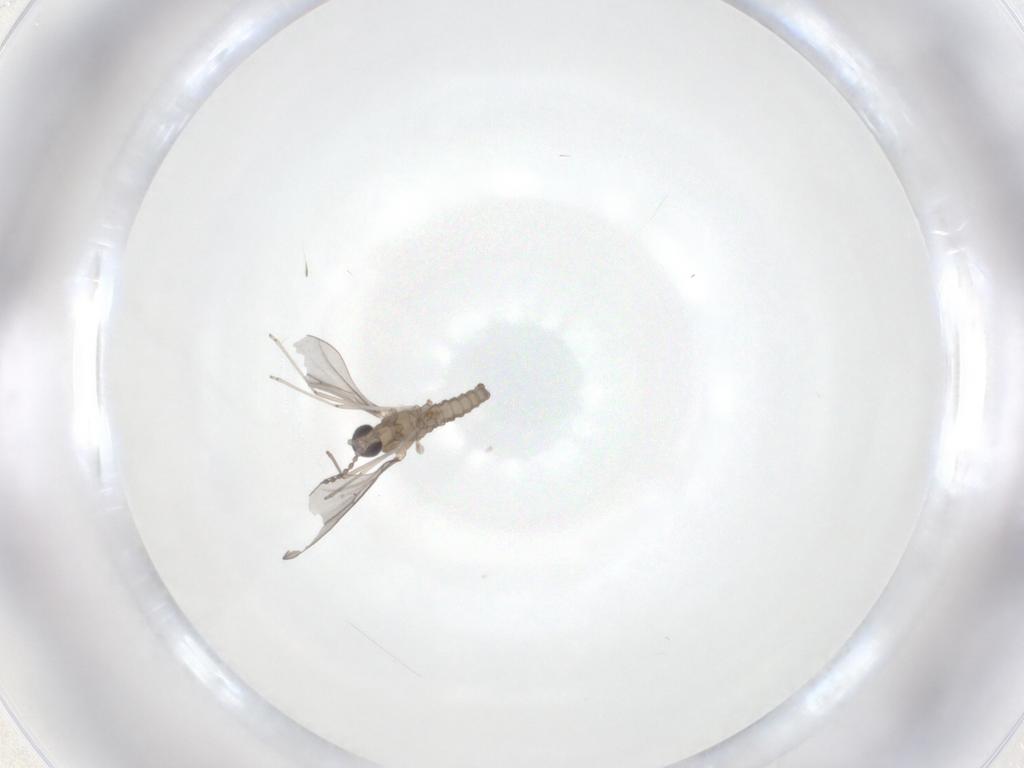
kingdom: Animalia
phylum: Arthropoda
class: Insecta
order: Diptera
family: Cecidomyiidae
